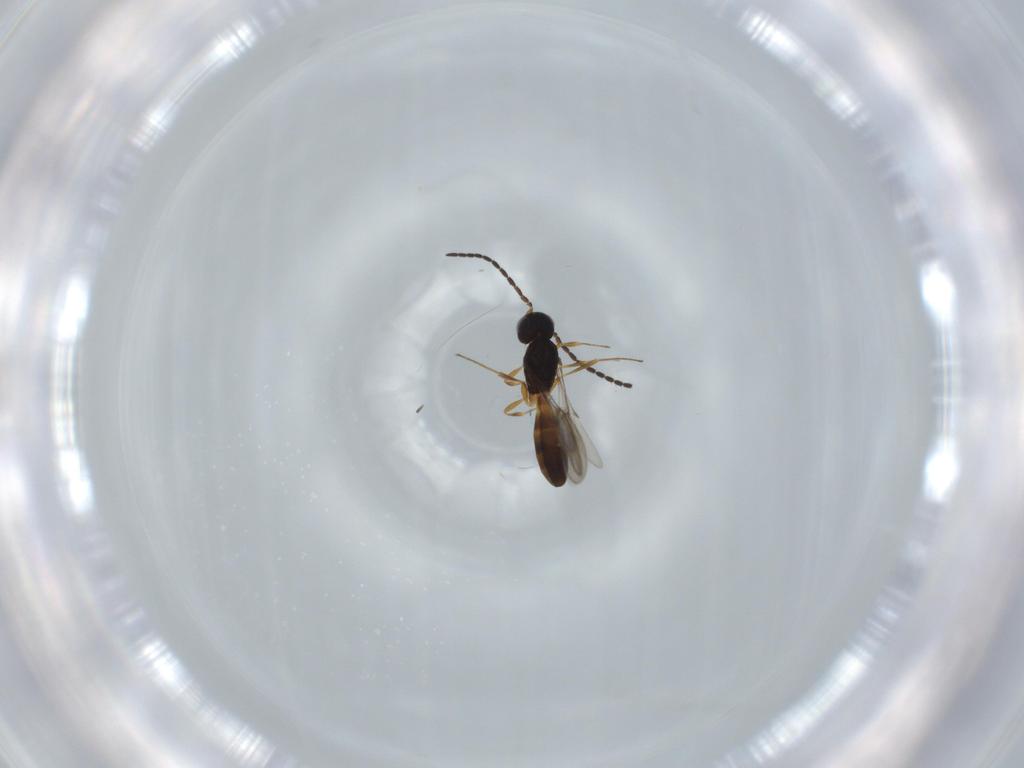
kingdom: Animalia
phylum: Arthropoda
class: Insecta
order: Hymenoptera
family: Scelionidae
